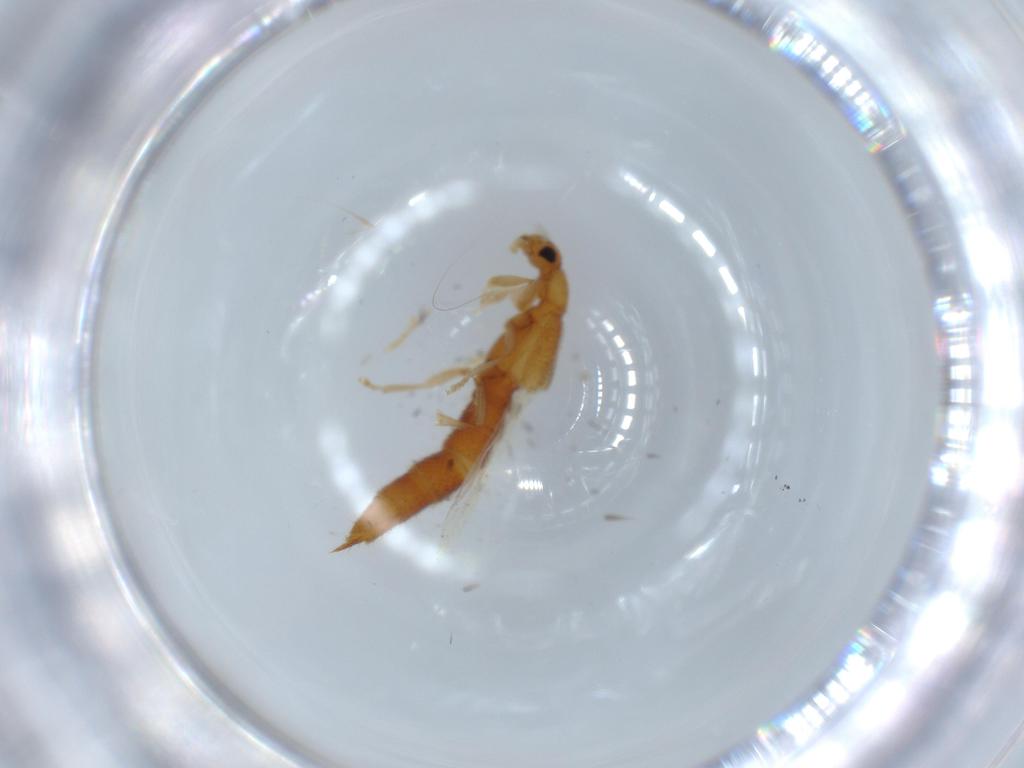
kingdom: Animalia
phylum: Arthropoda
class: Insecta
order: Coleoptera
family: Staphylinidae
